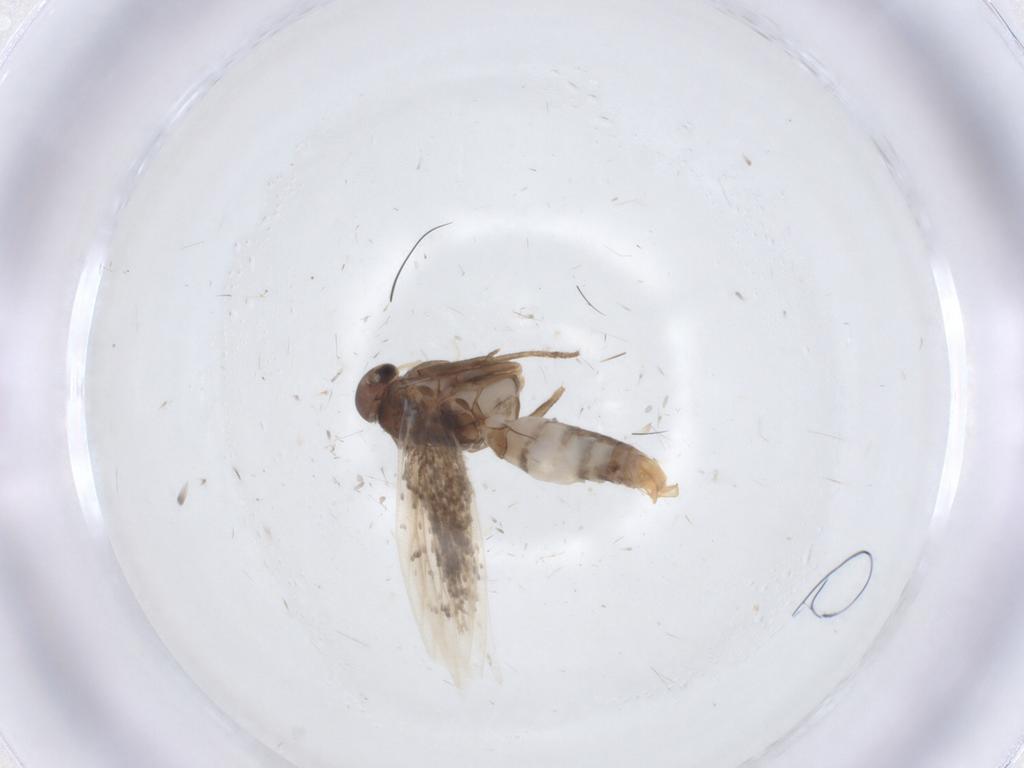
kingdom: Animalia
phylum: Arthropoda
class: Insecta
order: Lepidoptera
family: Elachistidae
